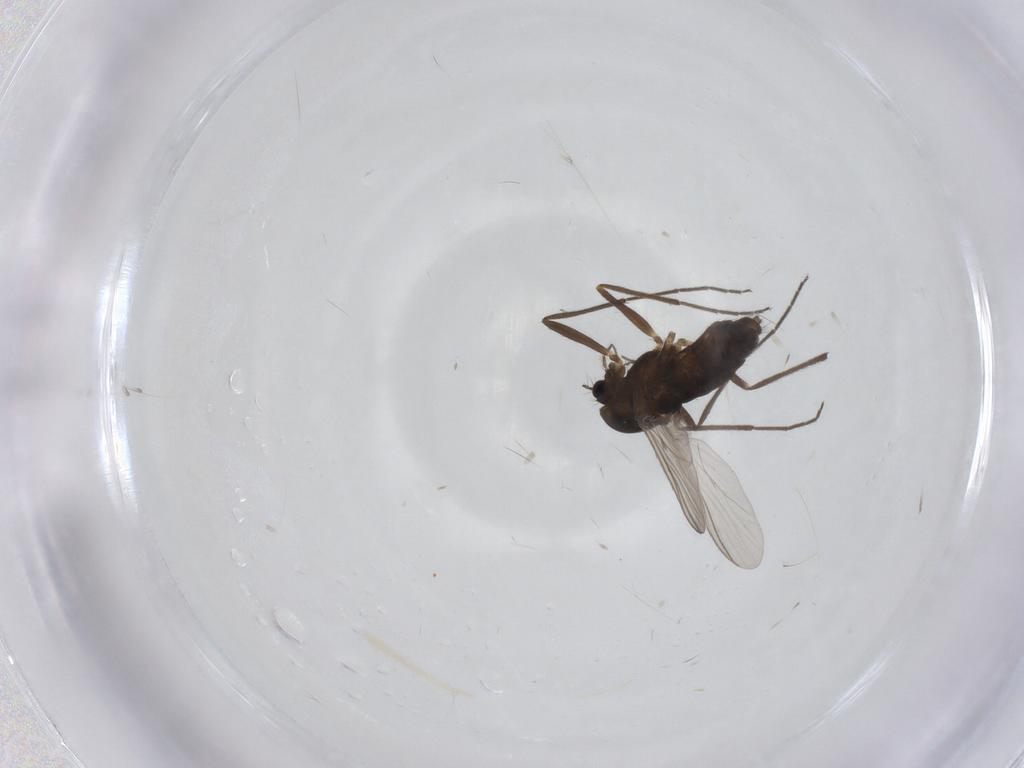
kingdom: Animalia
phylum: Arthropoda
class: Insecta
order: Diptera
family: Chironomidae
